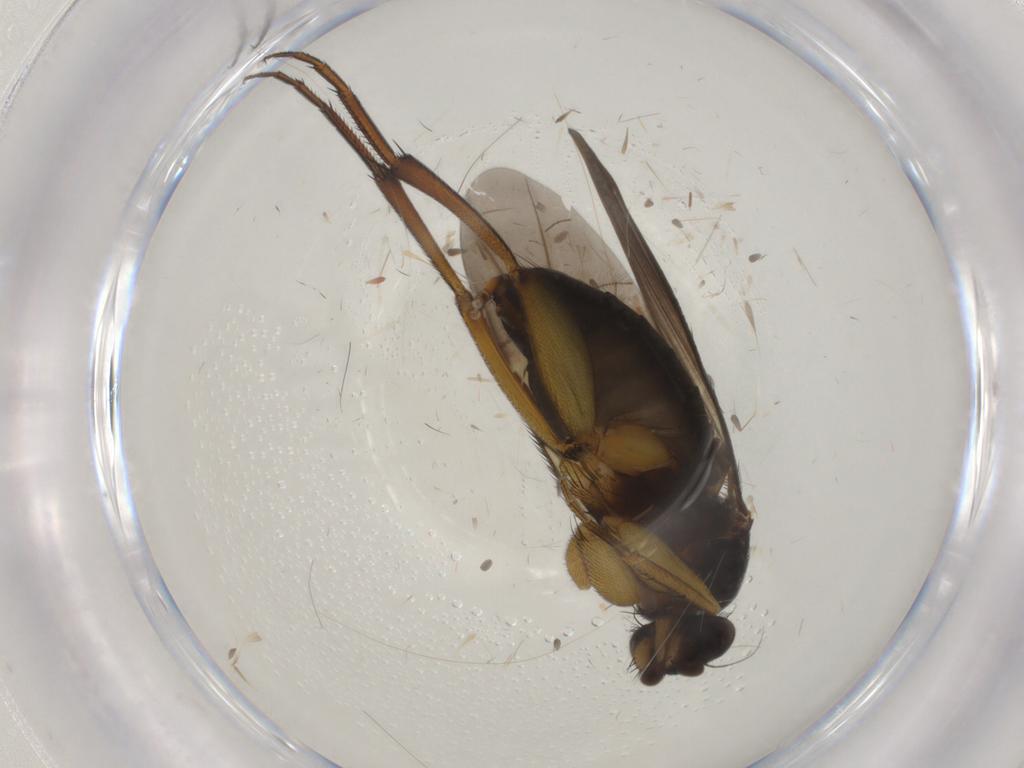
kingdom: Animalia
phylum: Arthropoda
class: Insecta
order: Diptera
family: Phoridae
